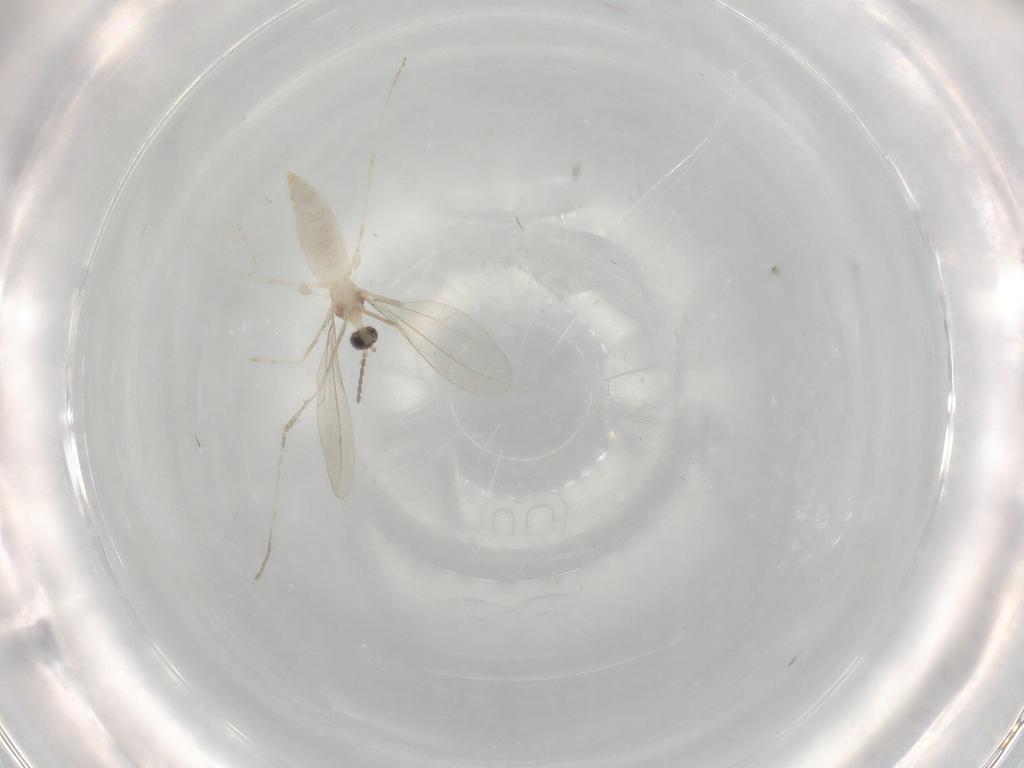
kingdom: Animalia
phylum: Arthropoda
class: Insecta
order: Diptera
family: Cecidomyiidae
